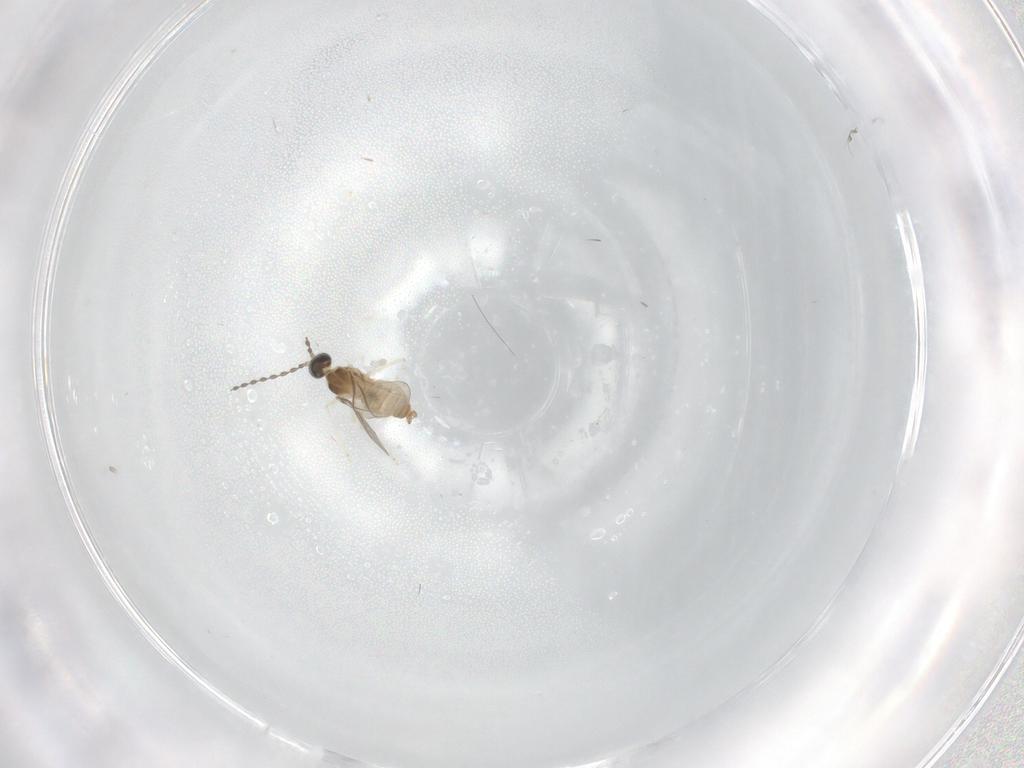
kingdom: Animalia
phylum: Arthropoda
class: Insecta
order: Diptera
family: Cecidomyiidae
